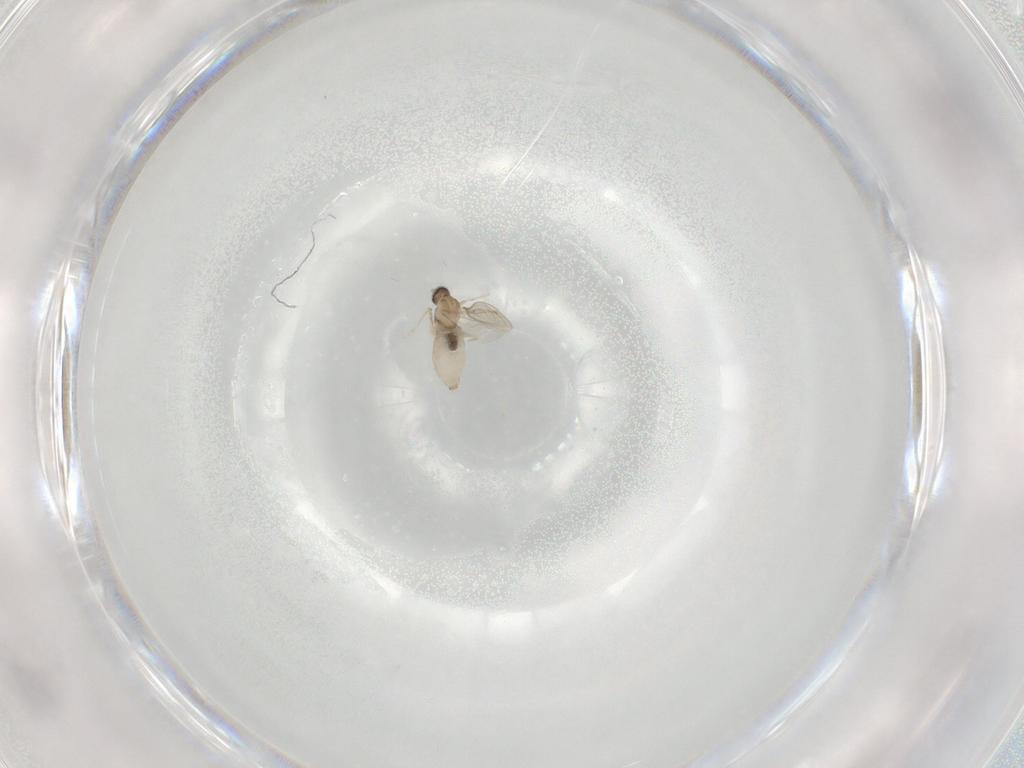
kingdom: Animalia
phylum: Arthropoda
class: Insecta
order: Diptera
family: Cecidomyiidae
